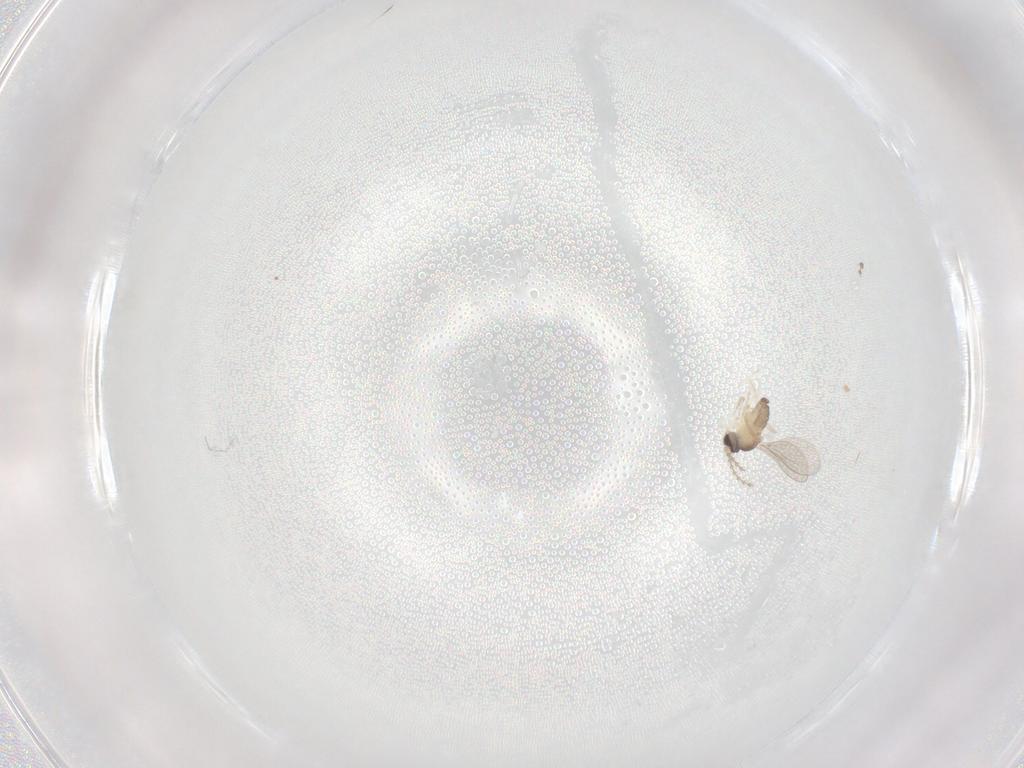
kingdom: Animalia
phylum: Arthropoda
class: Insecta
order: Diptera
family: Cecidomyiidae
